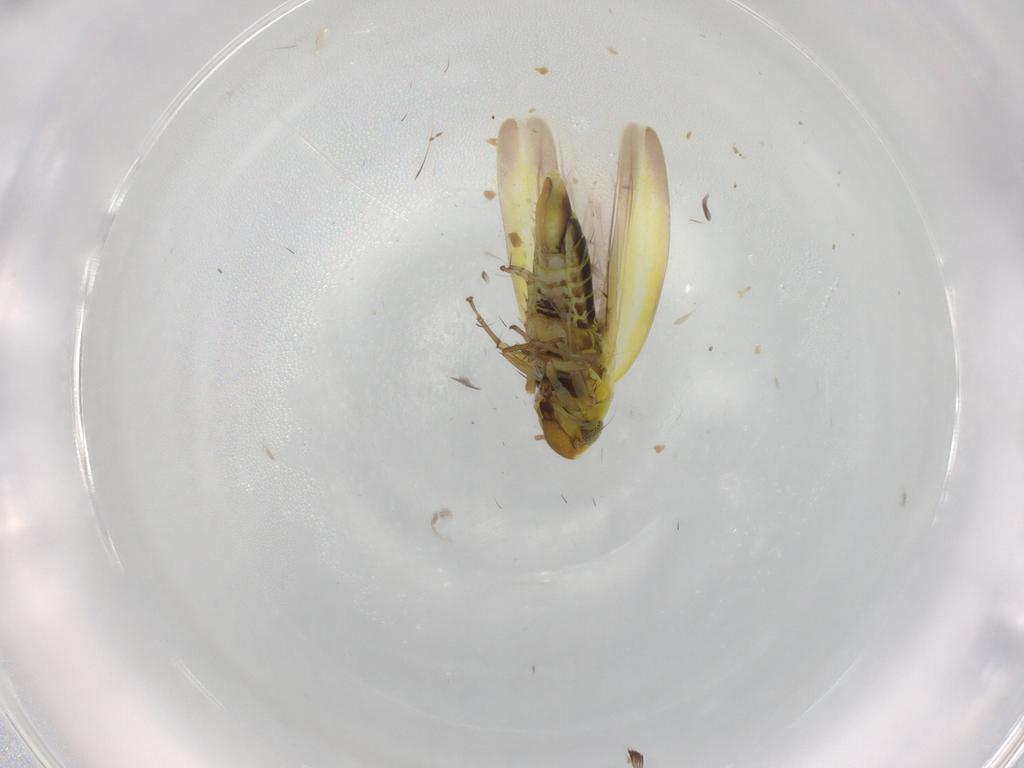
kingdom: Animalia
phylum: Arthropoda
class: Insecta
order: Hemiptera
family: Cicadellidae
